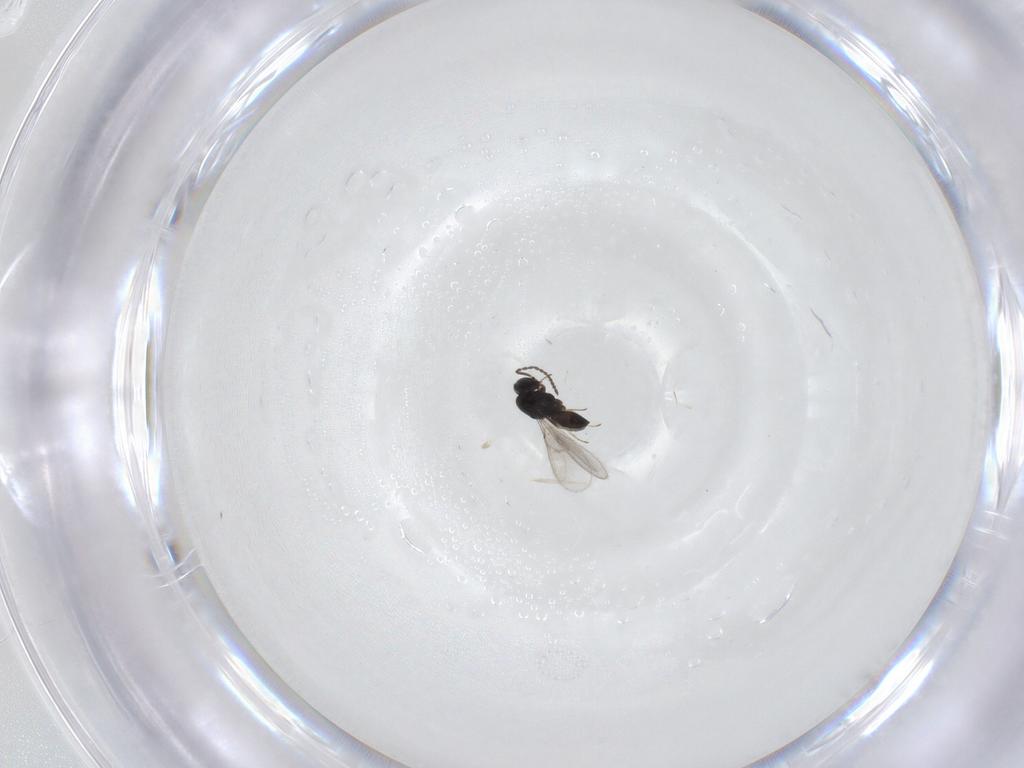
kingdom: Animalia
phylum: Arthropoda
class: Insecta
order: Hymenoptera
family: Scelionidae
